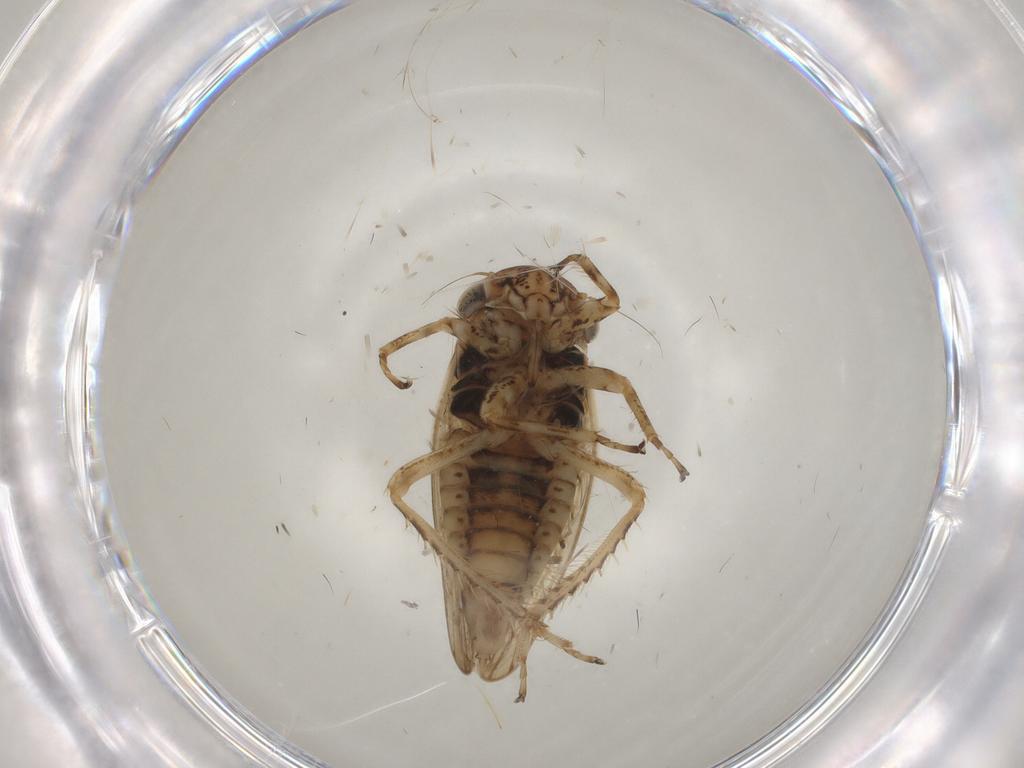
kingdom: Animalia
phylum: Arthropoda
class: Insecta
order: Hemiptera
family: Cicadellidae
